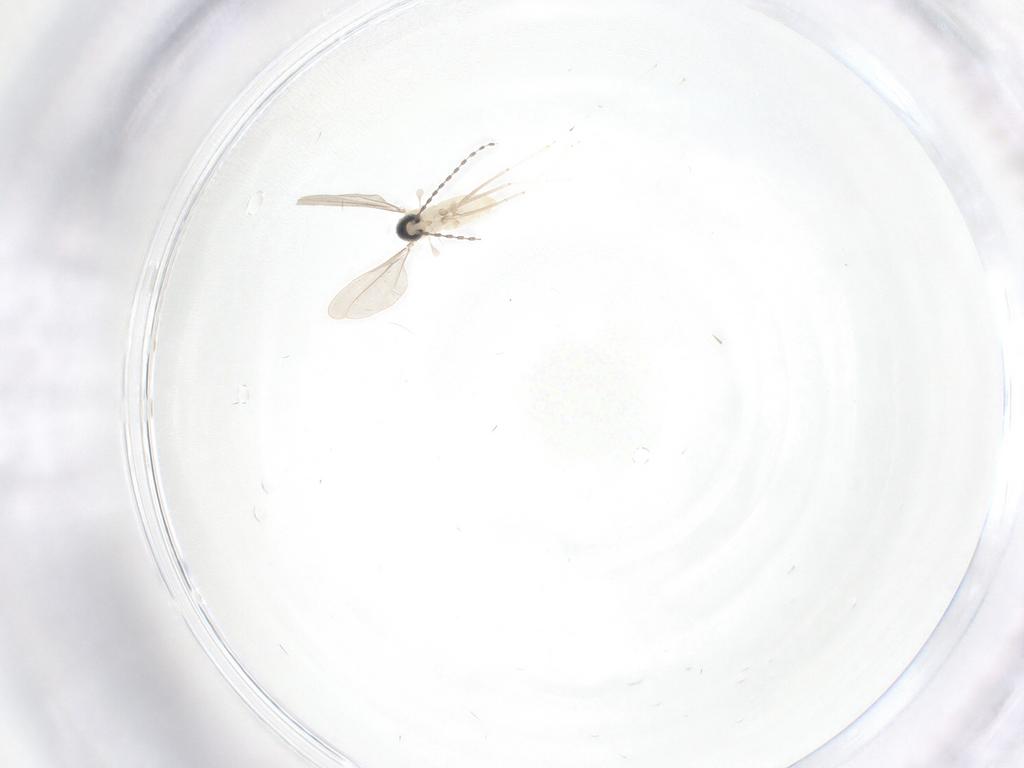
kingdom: Animalia
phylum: Arthropoda
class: Insecta
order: Diptera
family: Cecidomyiidae
